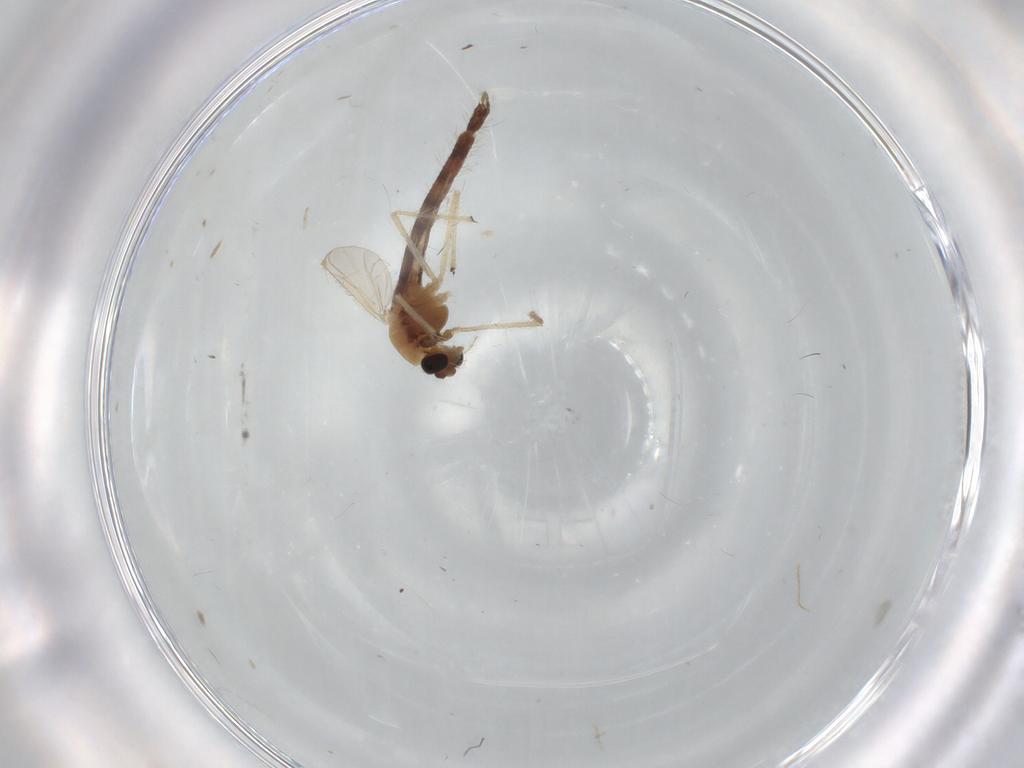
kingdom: Animalia
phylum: Arthropoda
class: Insecta
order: Diptera
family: Chironomidae
